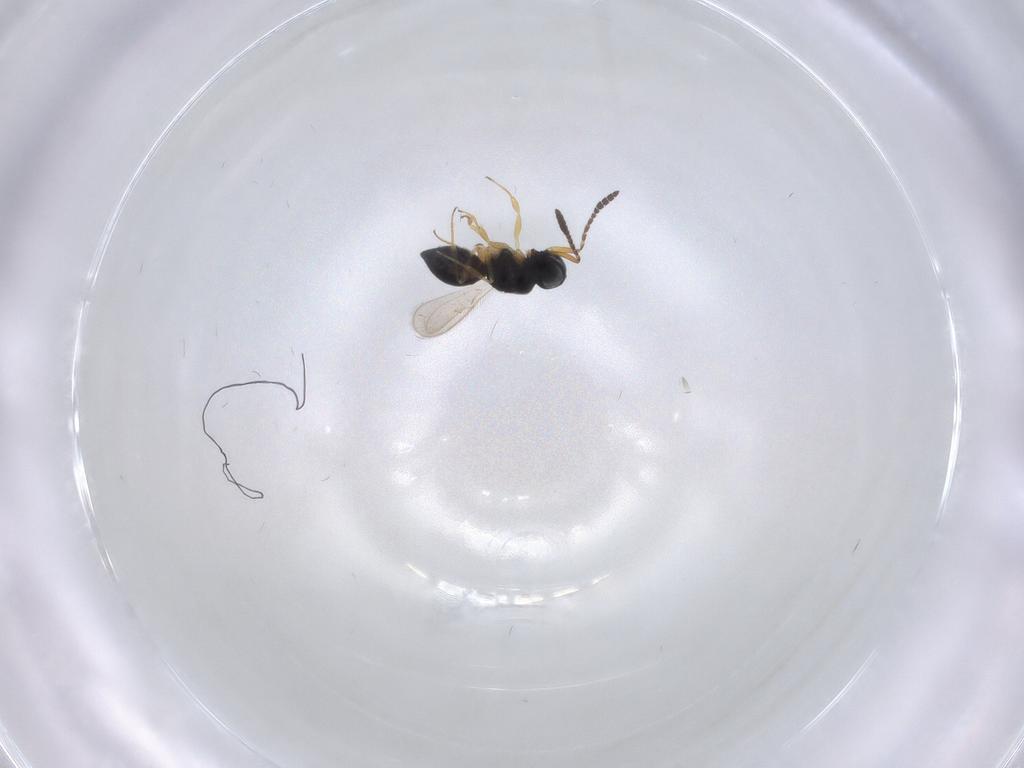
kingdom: Animalia
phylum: Arthropoda
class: Insecta
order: Hymenoptera
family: Scelionidae
